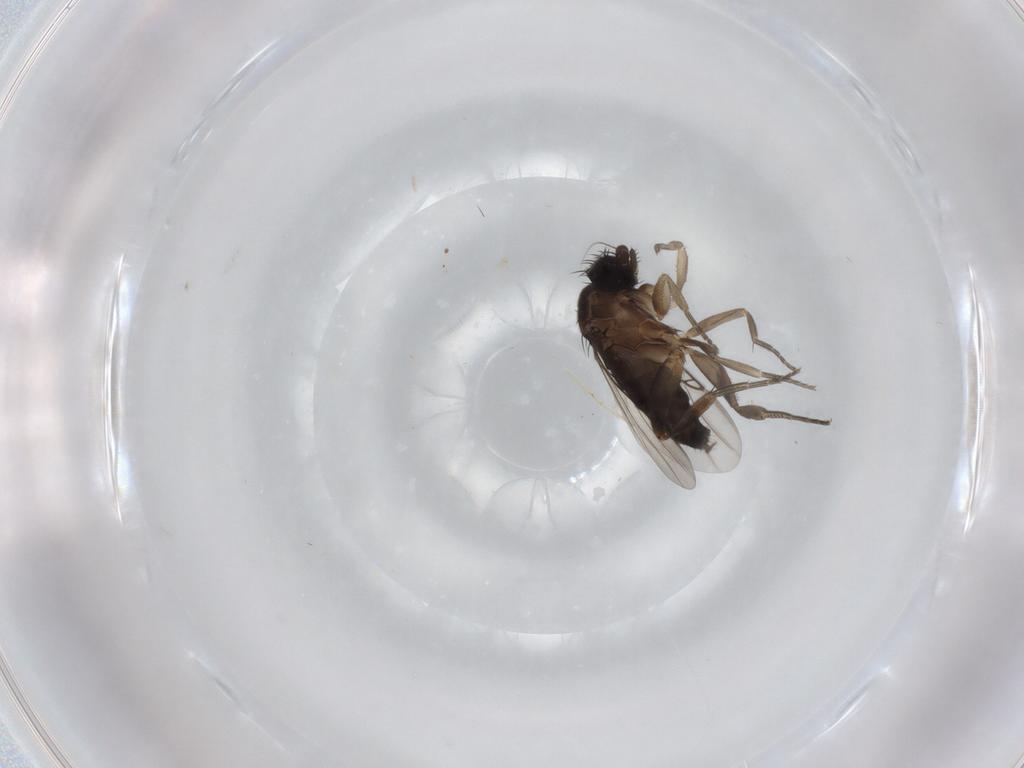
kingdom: Animalia
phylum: Arthropoda
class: Insecta
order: Diptera
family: Phoridae
